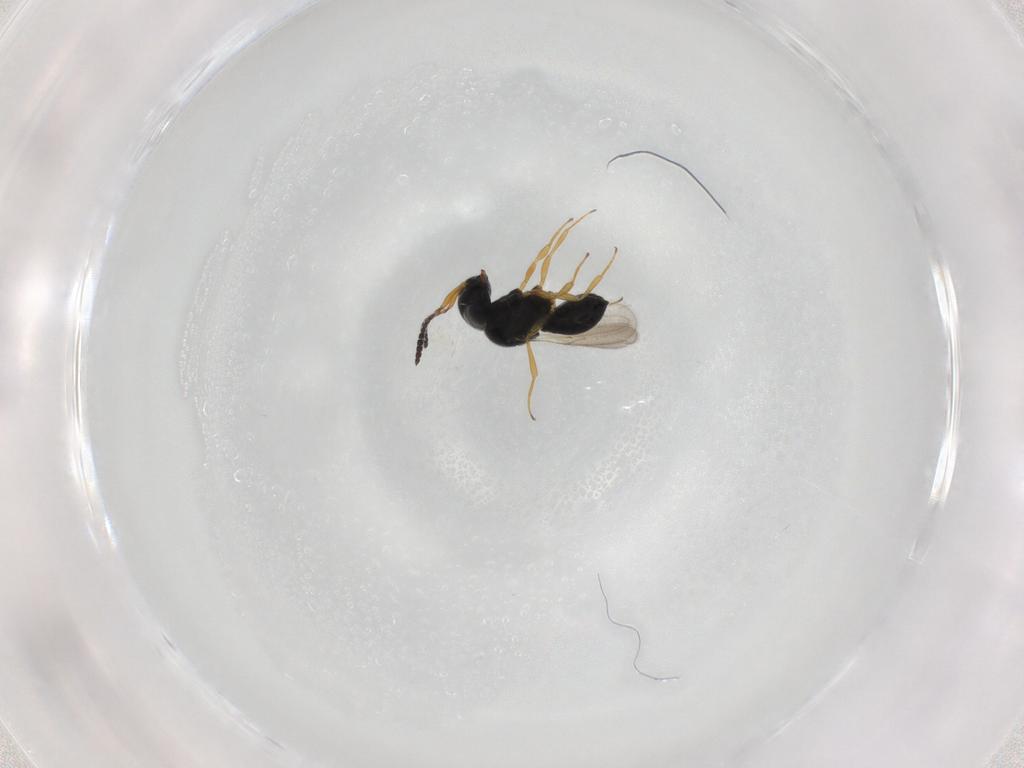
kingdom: Animalia
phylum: Arthropoda
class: Insecta
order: Hymenoptera
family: Scelionidae
